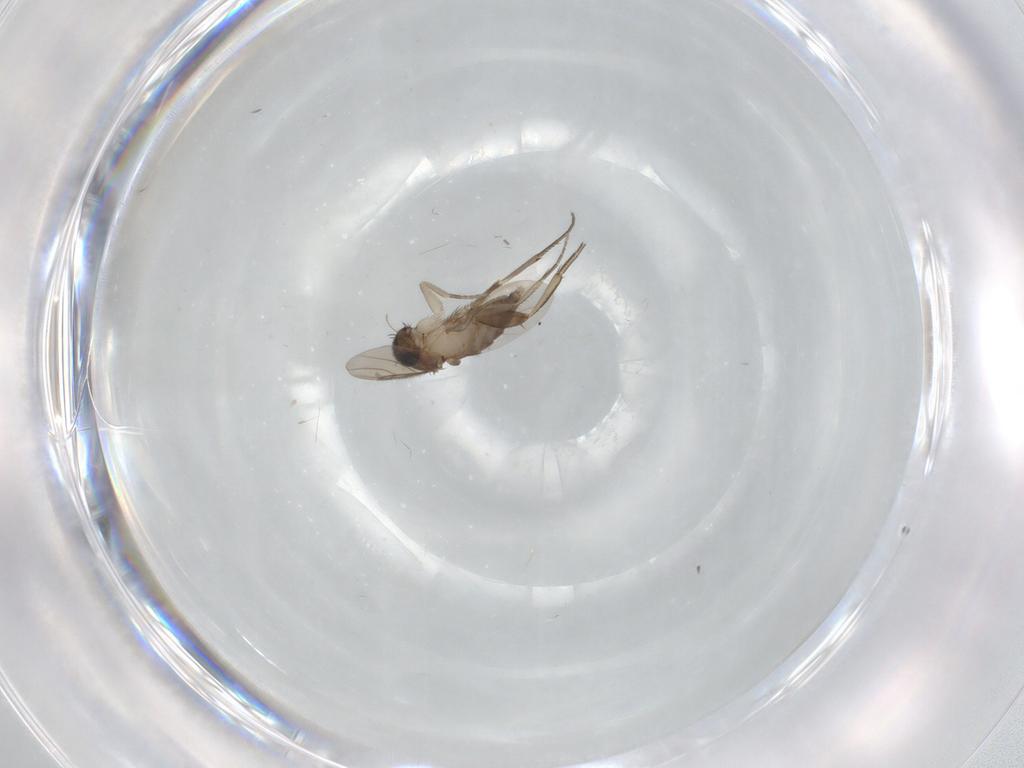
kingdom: Animalia
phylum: Arthropoda
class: Insecta
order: Diptera
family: Phoridae
